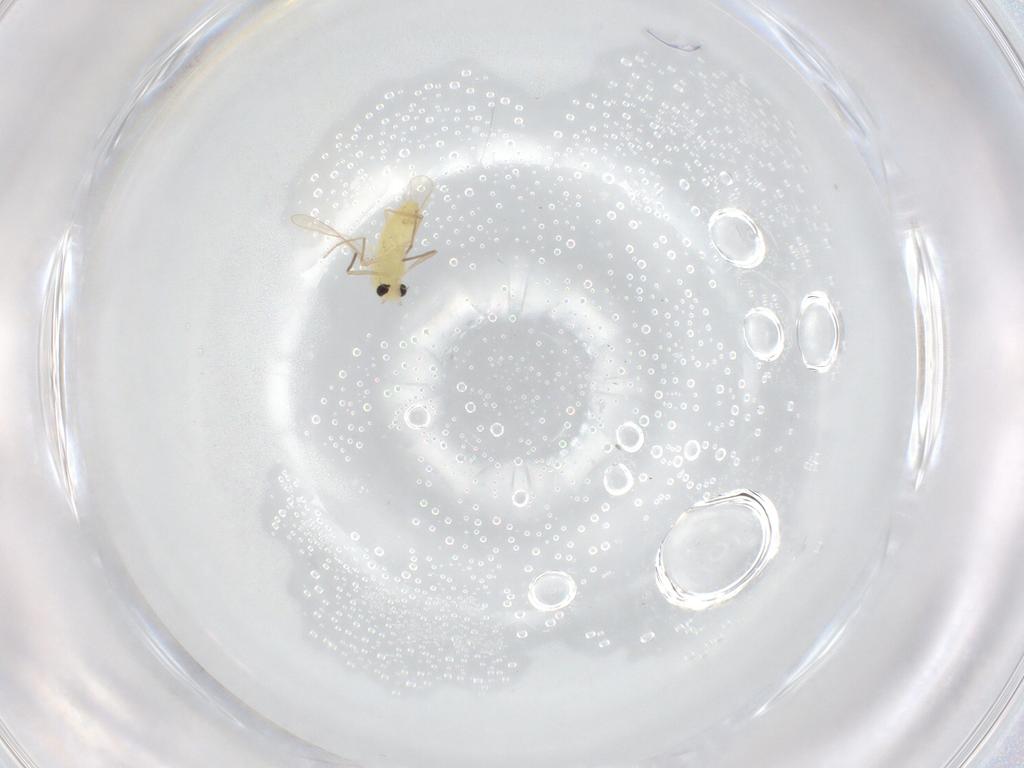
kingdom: Animalia
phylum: Arthropoda
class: Insecta
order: Diptera
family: Chironomidae
